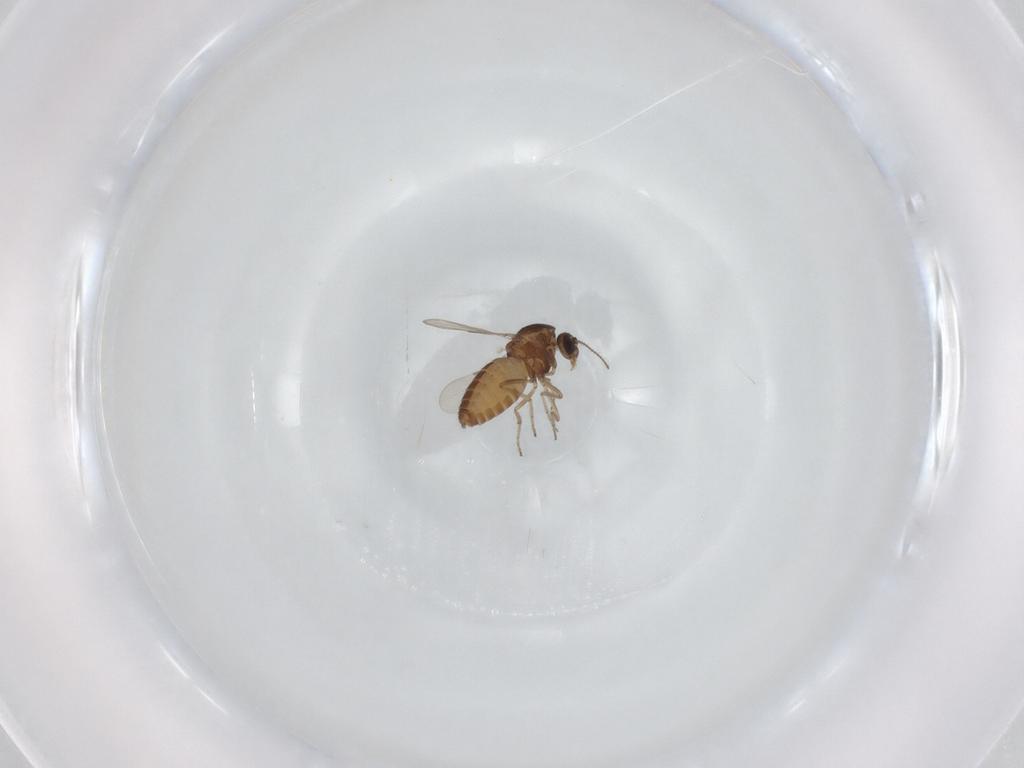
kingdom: Animalia
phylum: Arthropoda
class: Insecta
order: Diptera
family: Ceratopogonidae
